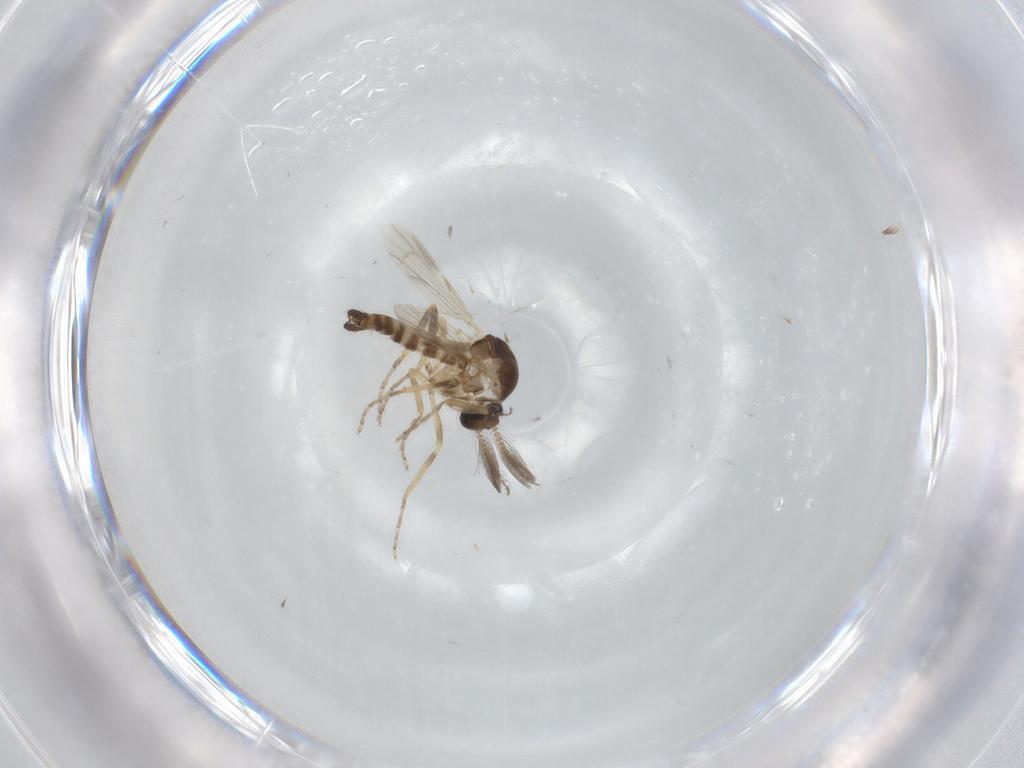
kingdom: Animalia
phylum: Arthropoda
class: Insecta
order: Diptera
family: Ceratopogonidae
